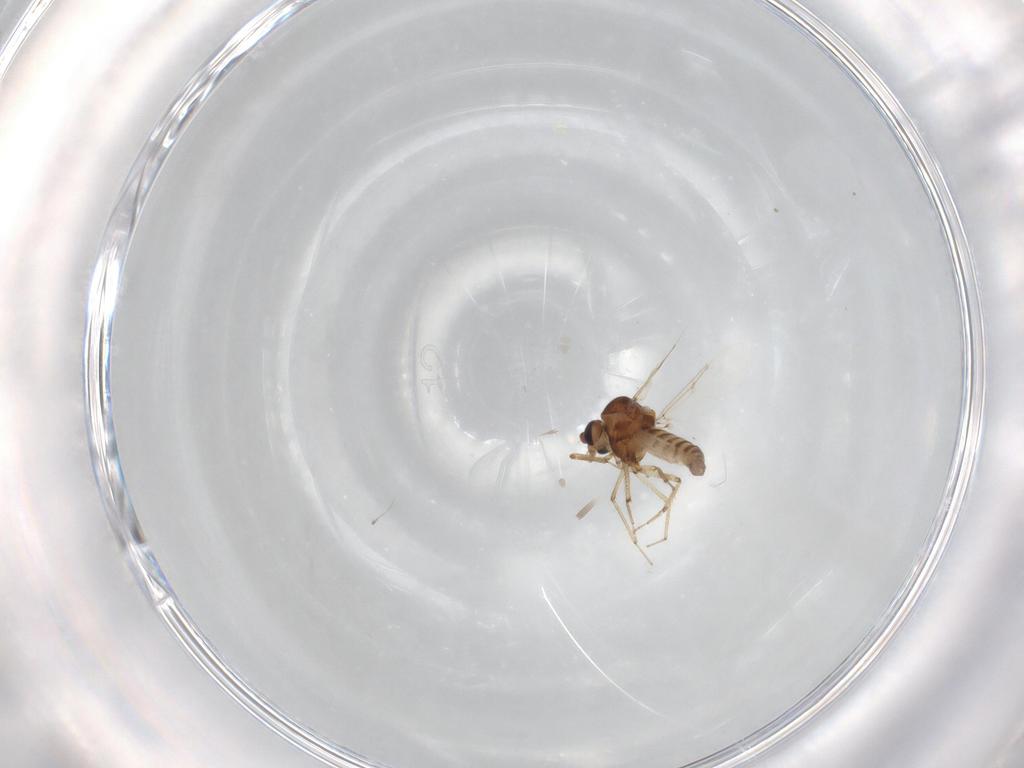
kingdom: Animalia
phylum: Arthropoda
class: Insecta
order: Diptera
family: Ceratopogonidae
